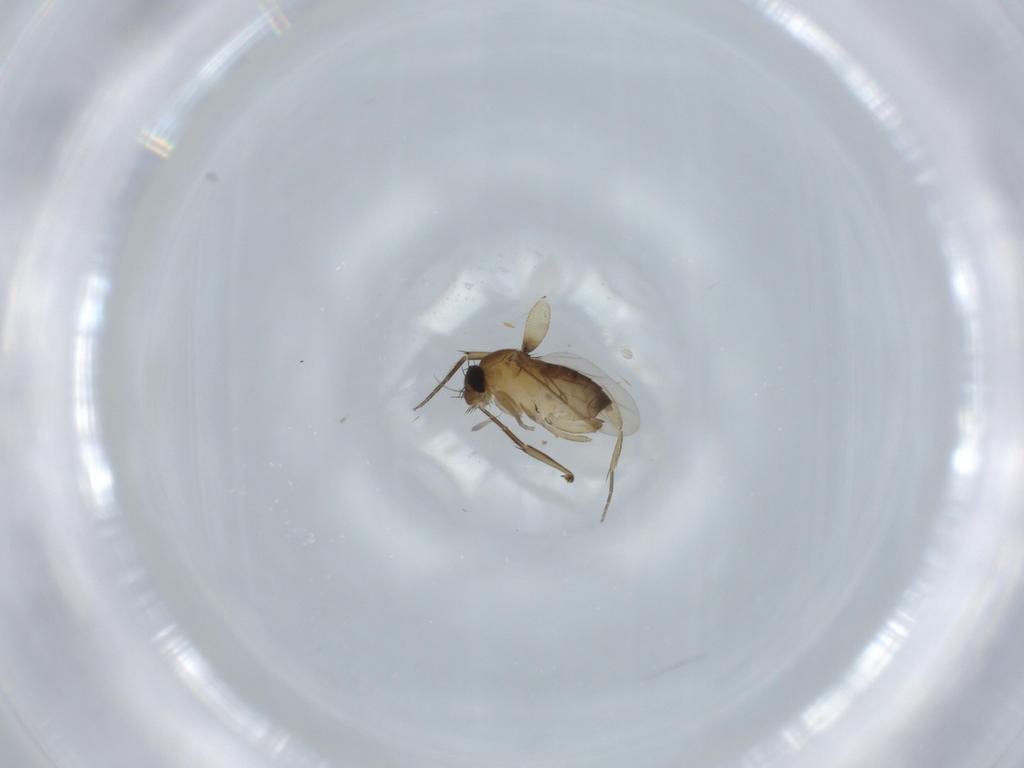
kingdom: Animalia
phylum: Arthropoda
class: Insecta
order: Diptera
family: Phoridae
